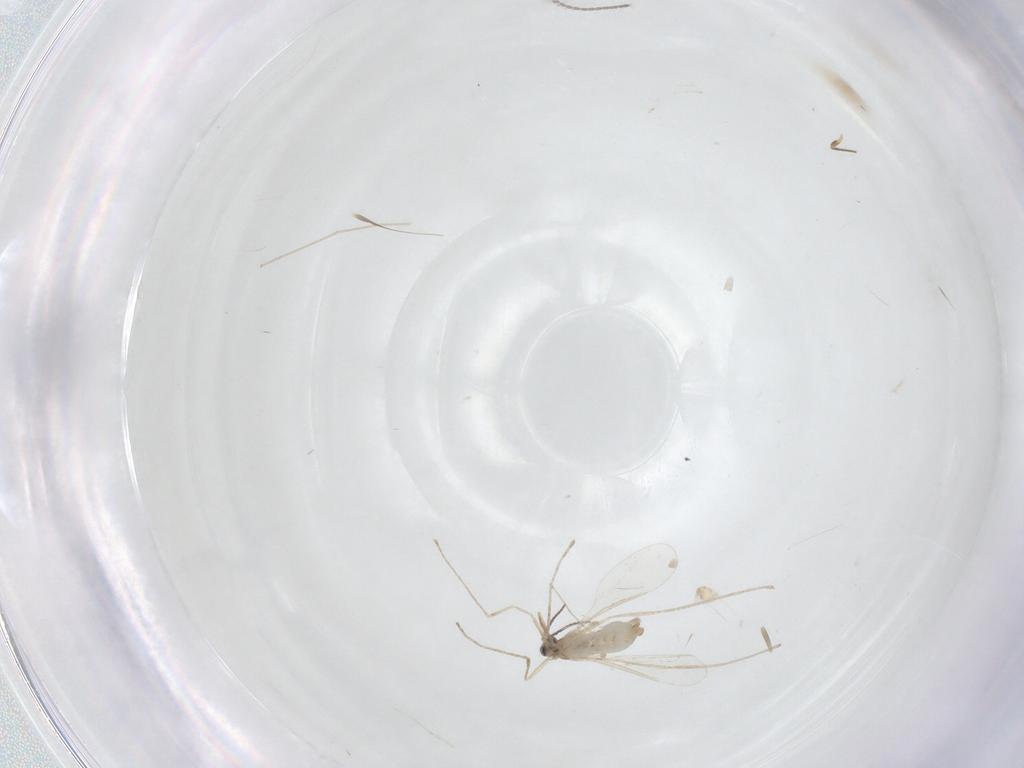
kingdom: Animalia
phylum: Arthropoda
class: Insecta
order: Diptera
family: Cecidomyiidae
